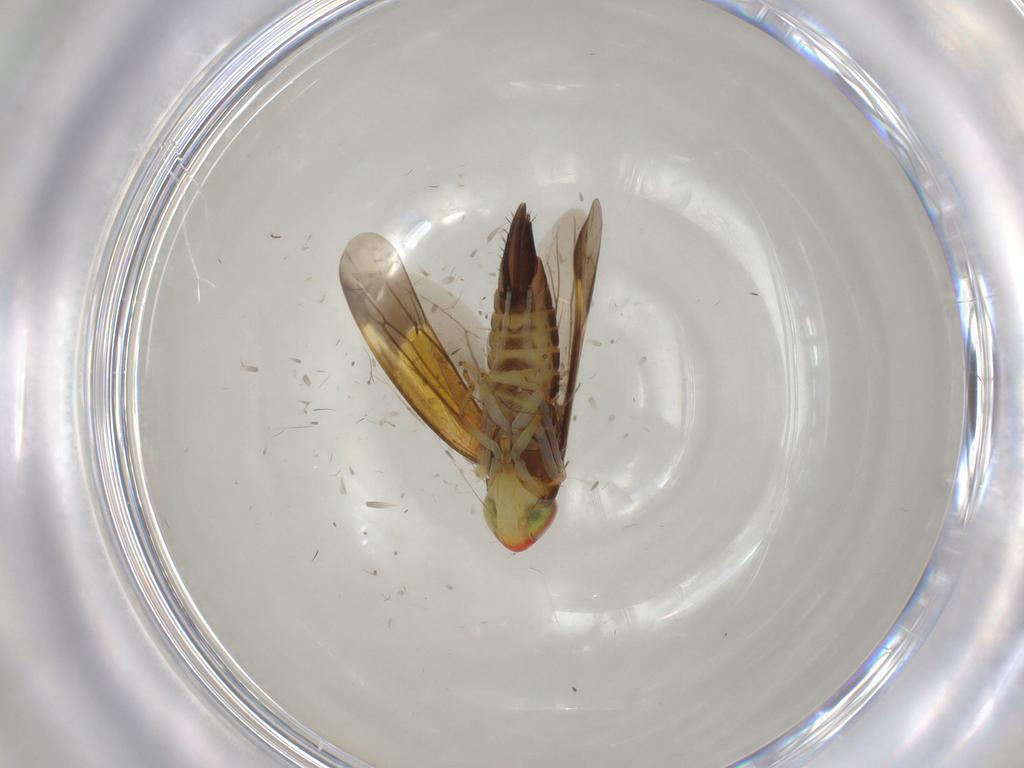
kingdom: Animalia
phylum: Arthropoda
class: Insecta
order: Hemiptera
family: Cicadellidae
